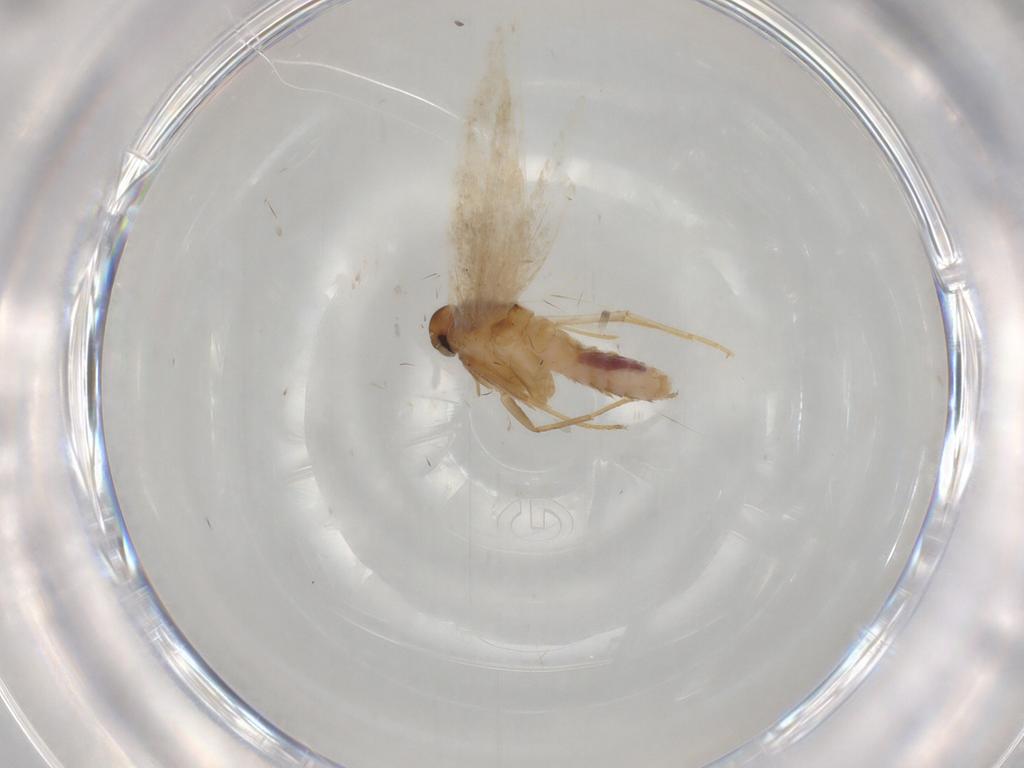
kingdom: Animalia
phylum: Arthropoda
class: Insecta
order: Lepidoptera
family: Gelechiidae
